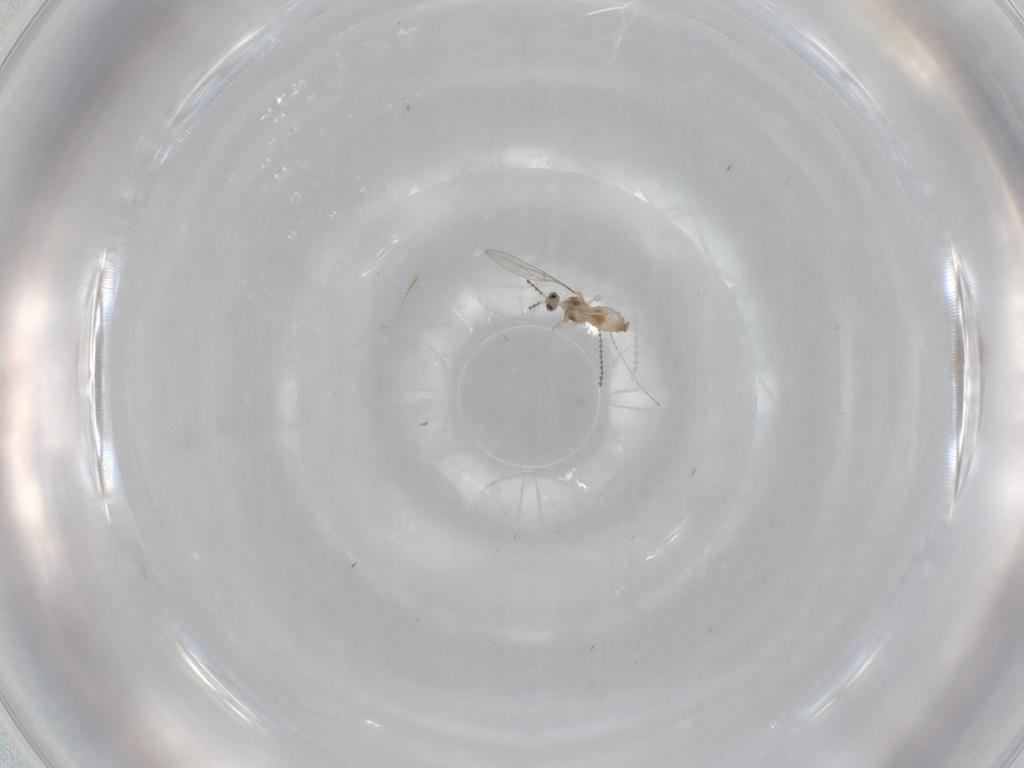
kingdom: Animalia
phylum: Arthropoda
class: Insecta
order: Diptera
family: Cecidomyiidae
